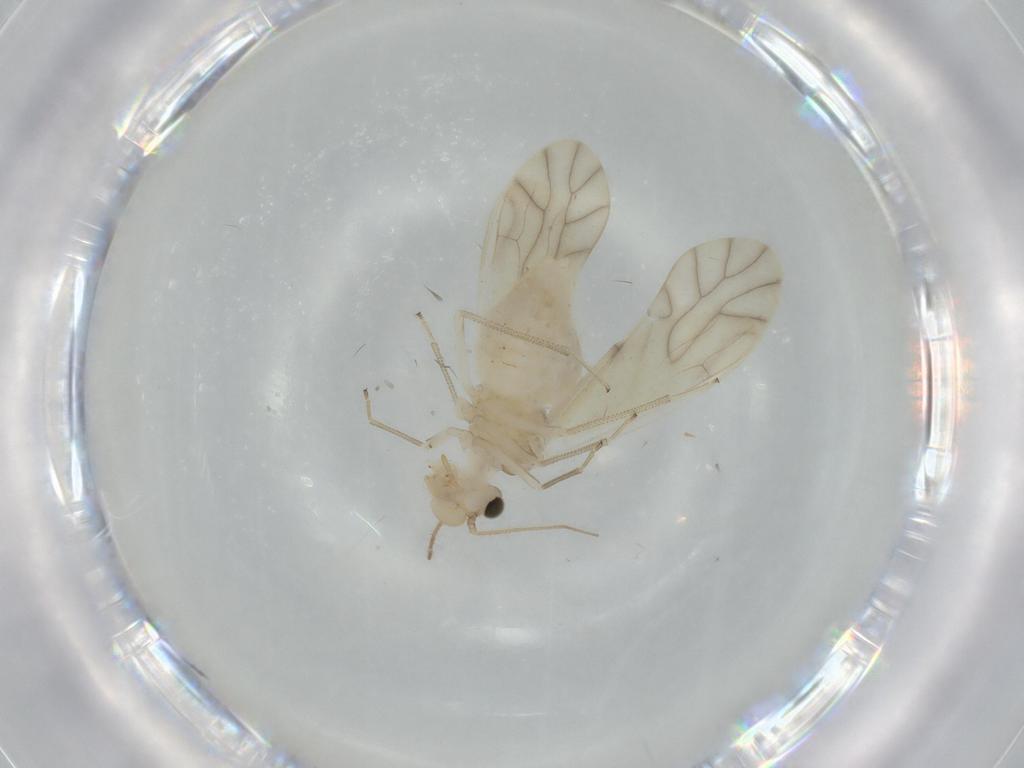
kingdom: Animalia
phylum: Arthropoda
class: Insecta
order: Psocodea
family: Caeciliusidae
